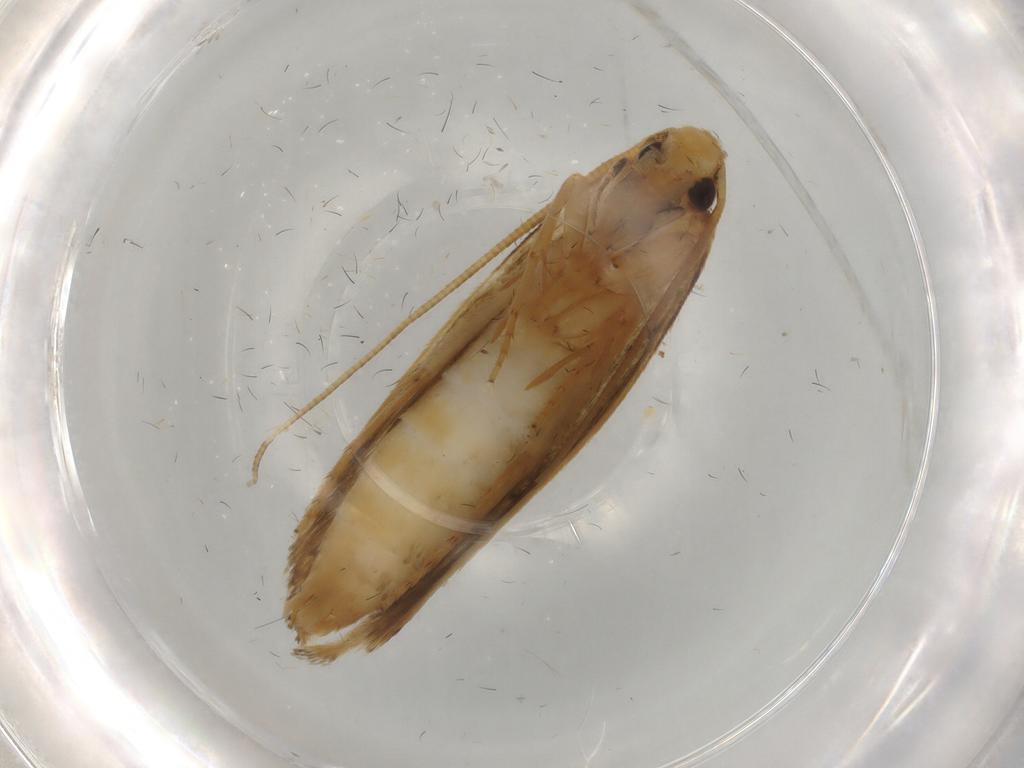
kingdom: Animalia
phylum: Arthropoda
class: Insecta
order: Lepidoptera
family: Tineidae
